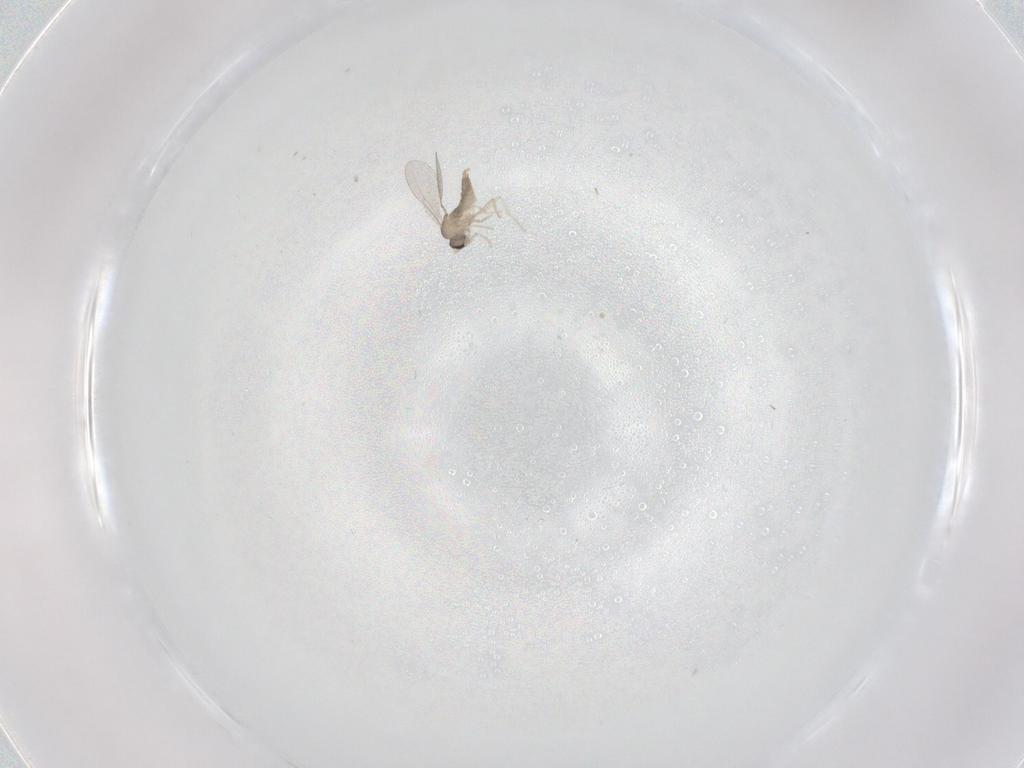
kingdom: Animalia
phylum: Arthropoda
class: Insecta
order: Diptera
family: Cecidomyiidae
